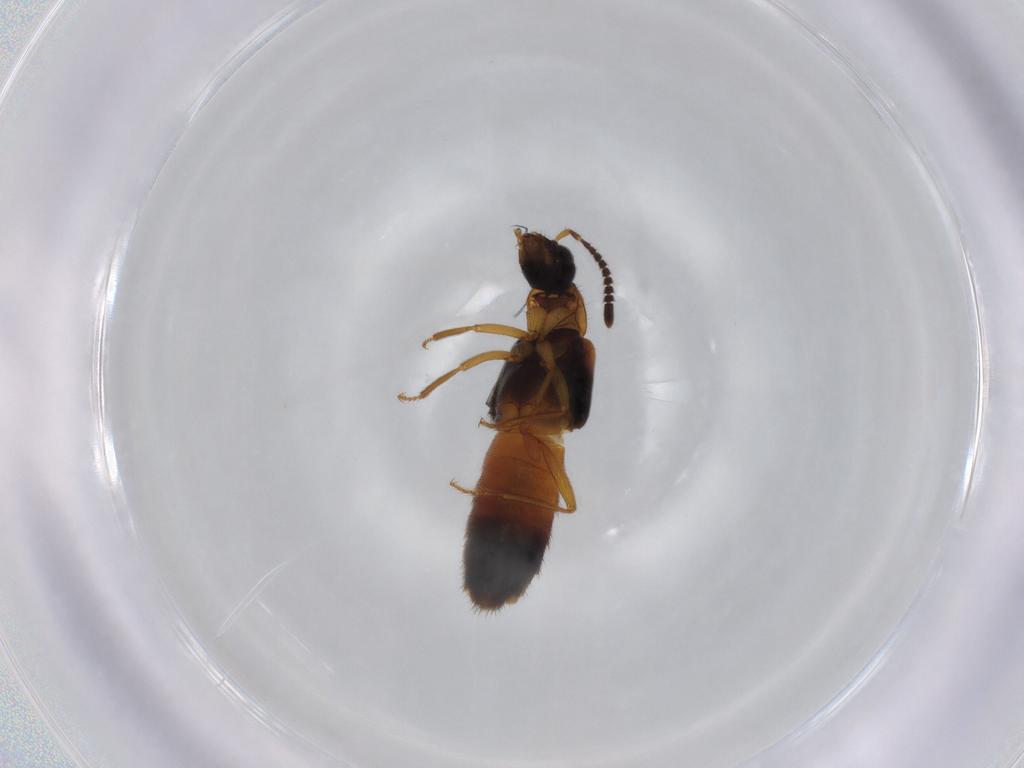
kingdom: Animalia
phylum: Arthropoda
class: Insecta
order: Coleoptera
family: Staphylinidae
